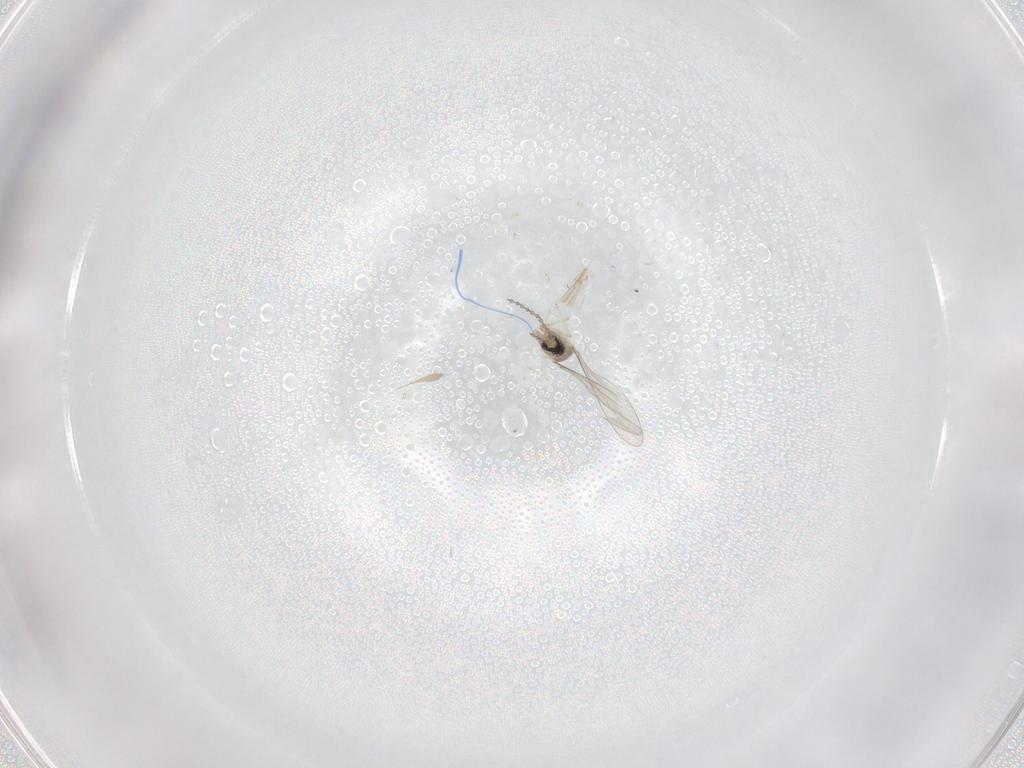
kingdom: Animalia
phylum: Arthropoda
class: Insecta
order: Diptera
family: Cecidomyiidae
